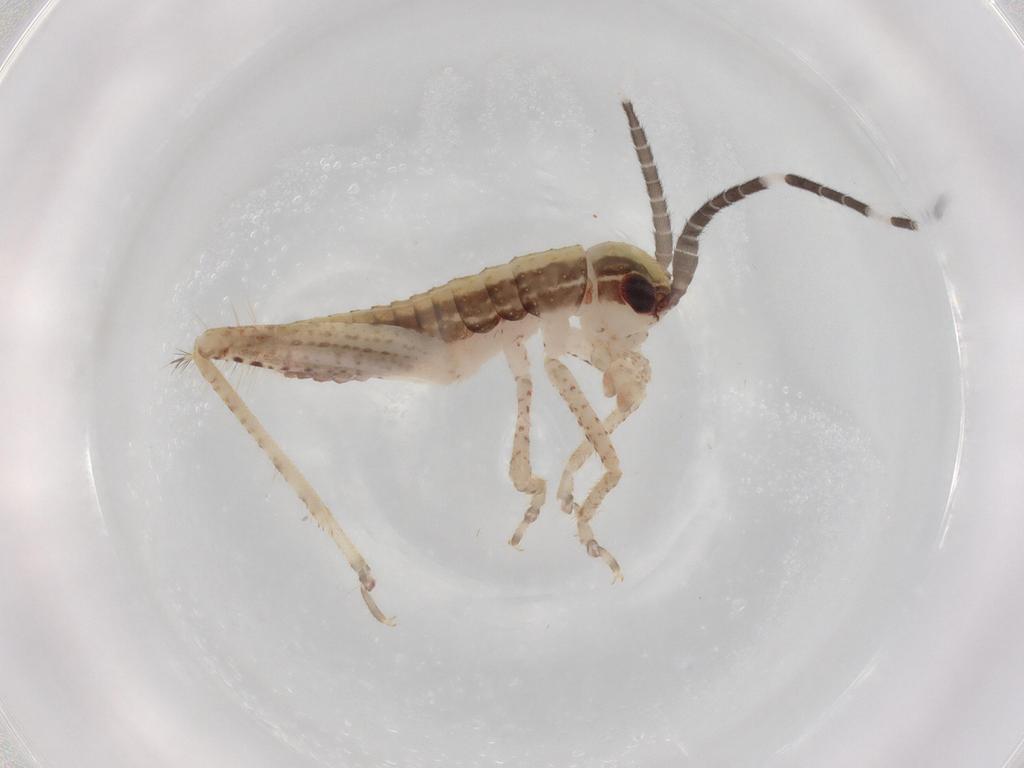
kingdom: Animalia
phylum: Arthropoda
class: Insecta
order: Orthoptera
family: Gryllidae
